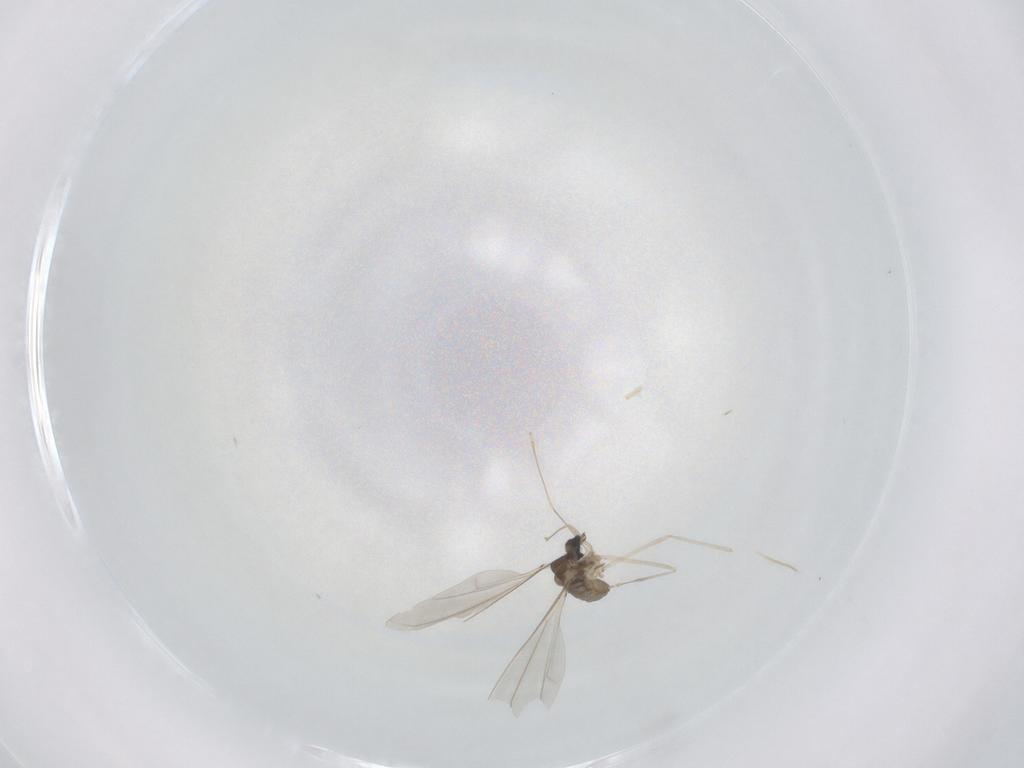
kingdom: Animalia
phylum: Arthropoda
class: Insecta
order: Diptera
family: Cecidomyiidae
